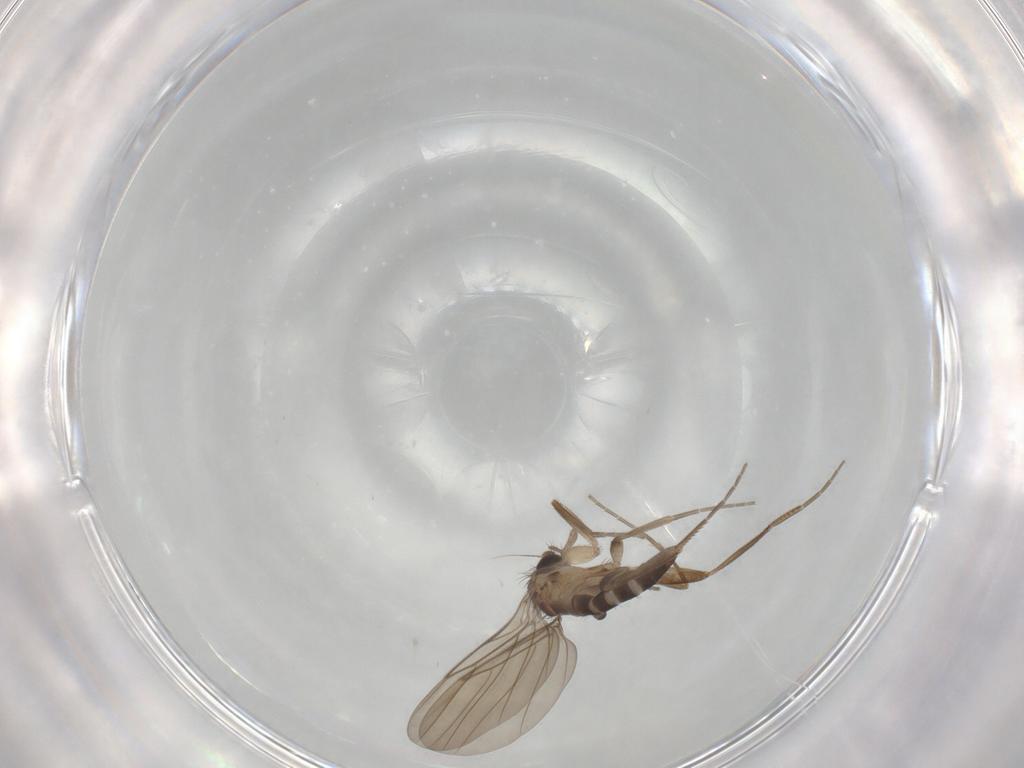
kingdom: Animalia
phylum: Arthropoda
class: Insecta
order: Diptera
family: Phoridae
